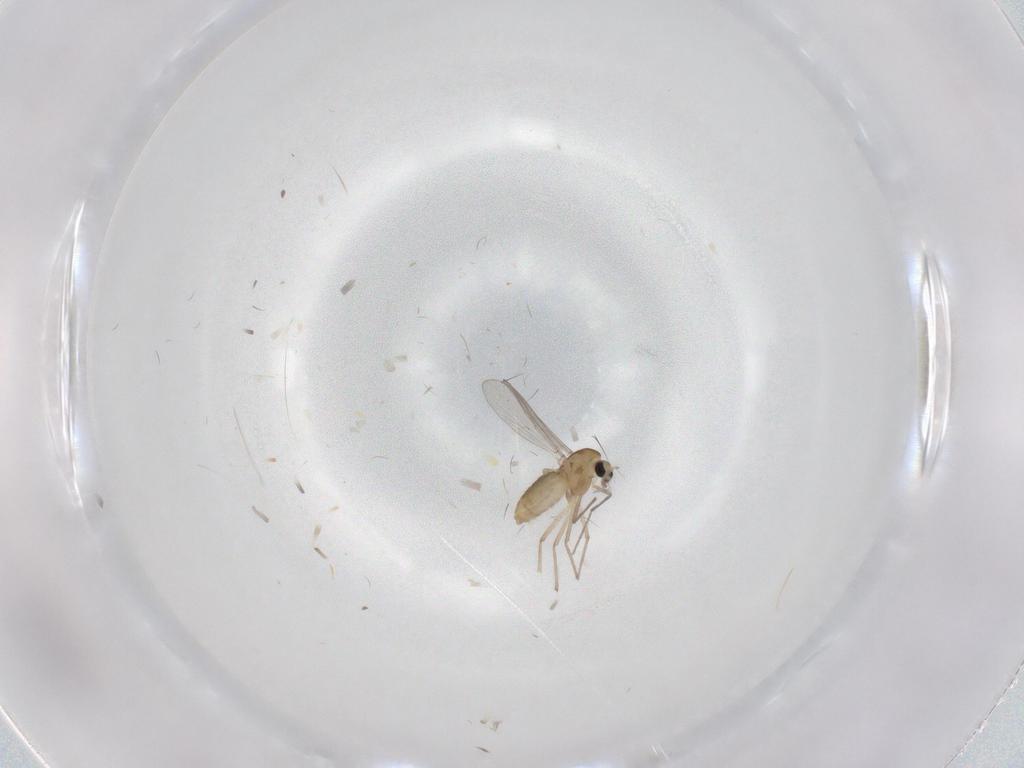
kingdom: Animalia
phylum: Arthropoda
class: Insecta
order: Diptera
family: Chironomidae
